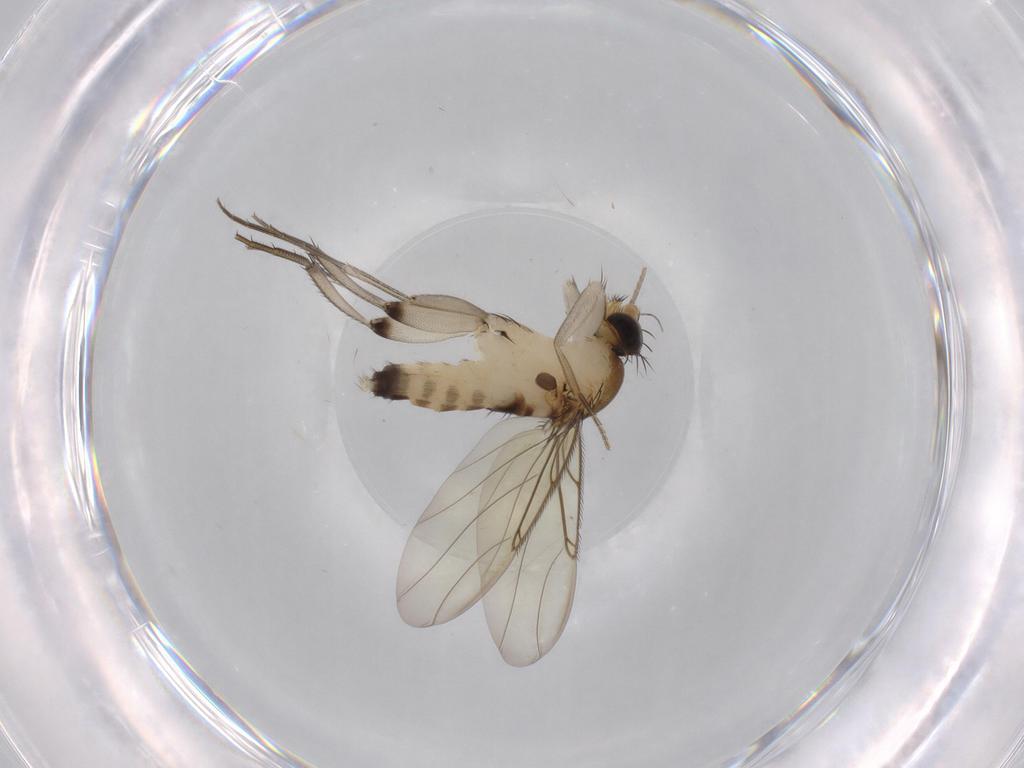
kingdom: Animalia
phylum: Arthropoda
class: Insecta
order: Diptera
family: Phoridae
